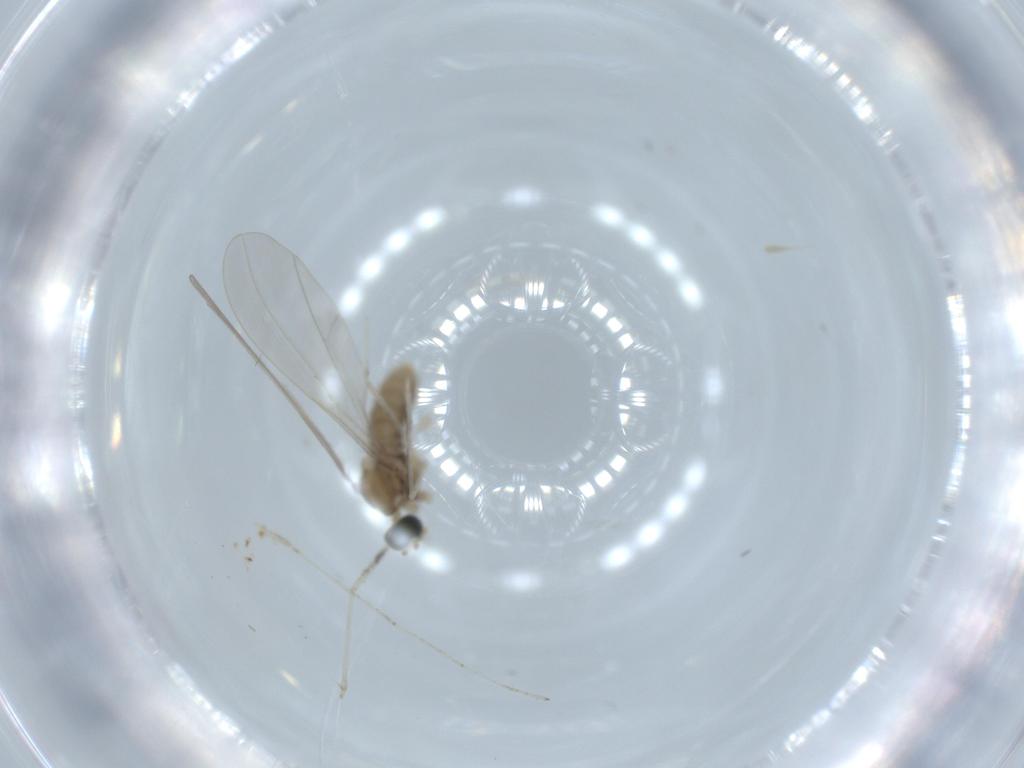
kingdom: Animalia
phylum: Arthropoda
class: Insecta
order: Diptera
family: Cecidomyiidae
